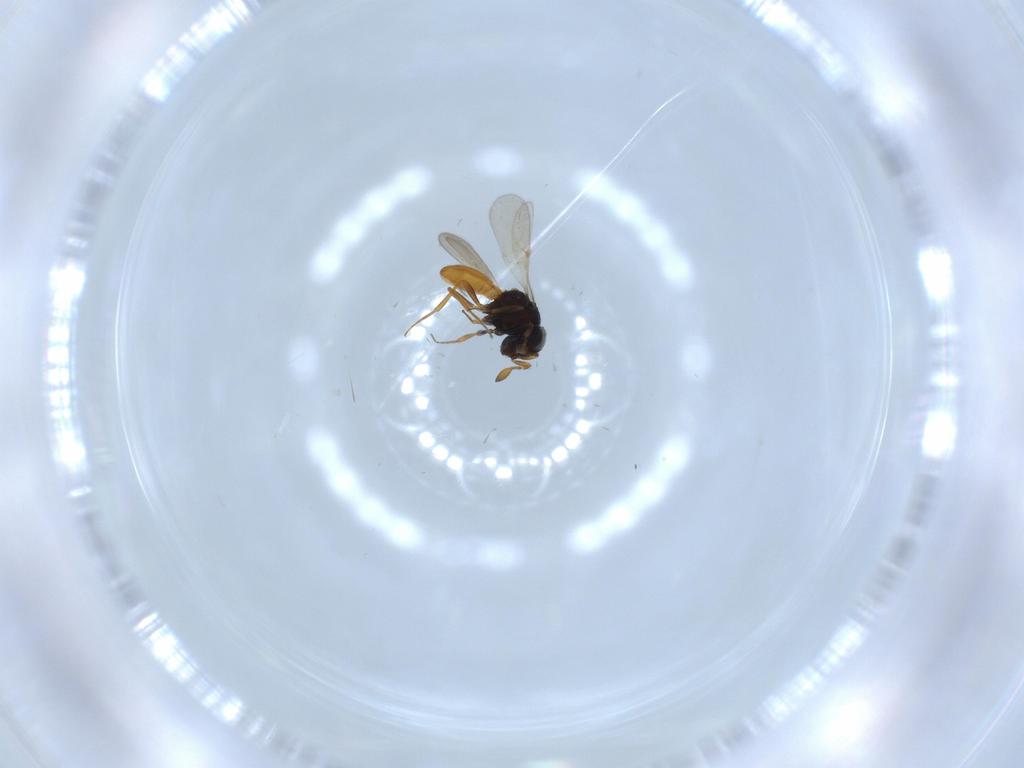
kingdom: Animalia
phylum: Arthropoda
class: Insecta
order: Hymenoptera
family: Scelionidae
